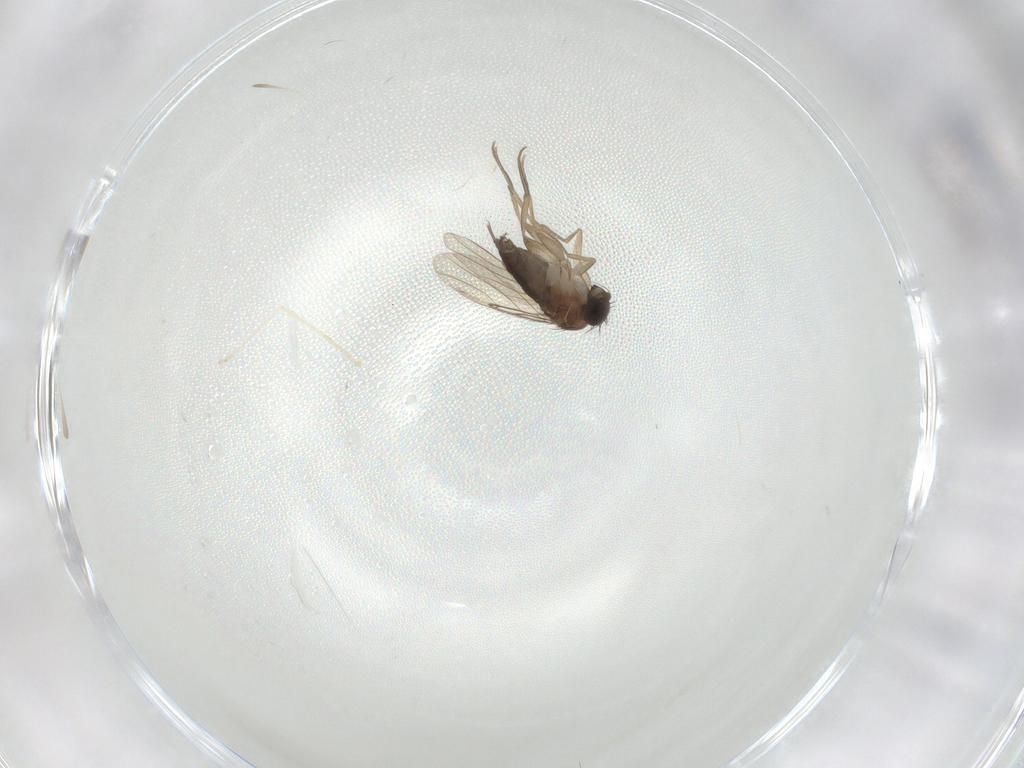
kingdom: Animalia
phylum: Arthropoda
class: Insecta
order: Diptera
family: Phoridae
